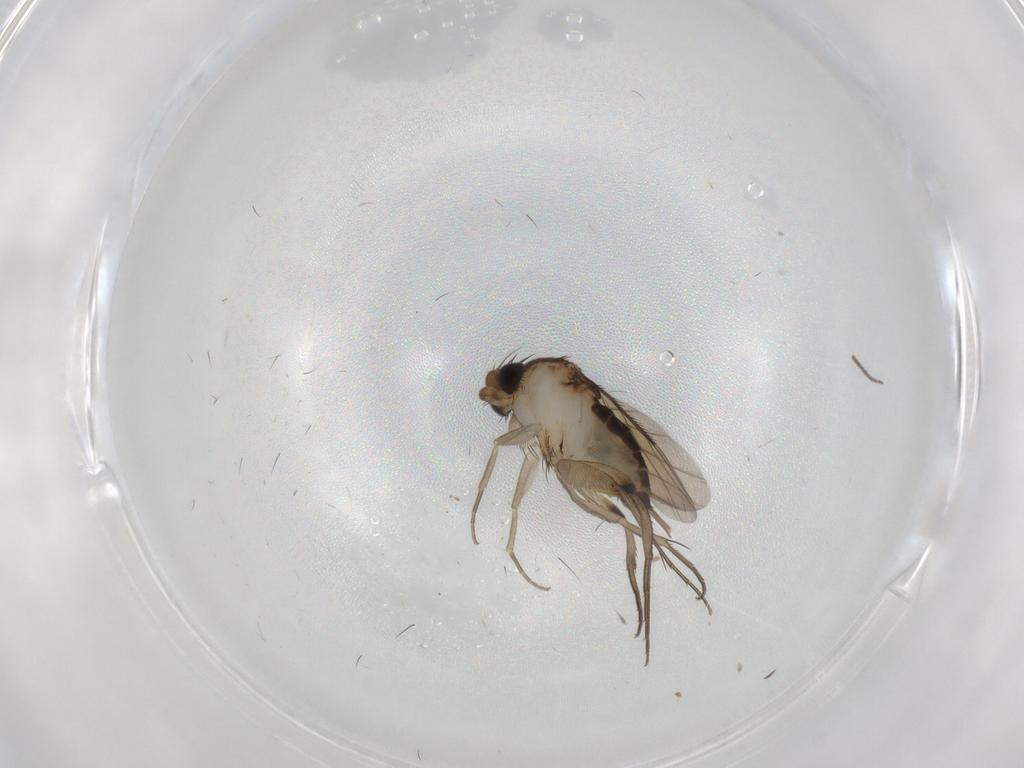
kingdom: Animalia
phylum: Arthropoda
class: Insecta
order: Diptera
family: Phoridae
